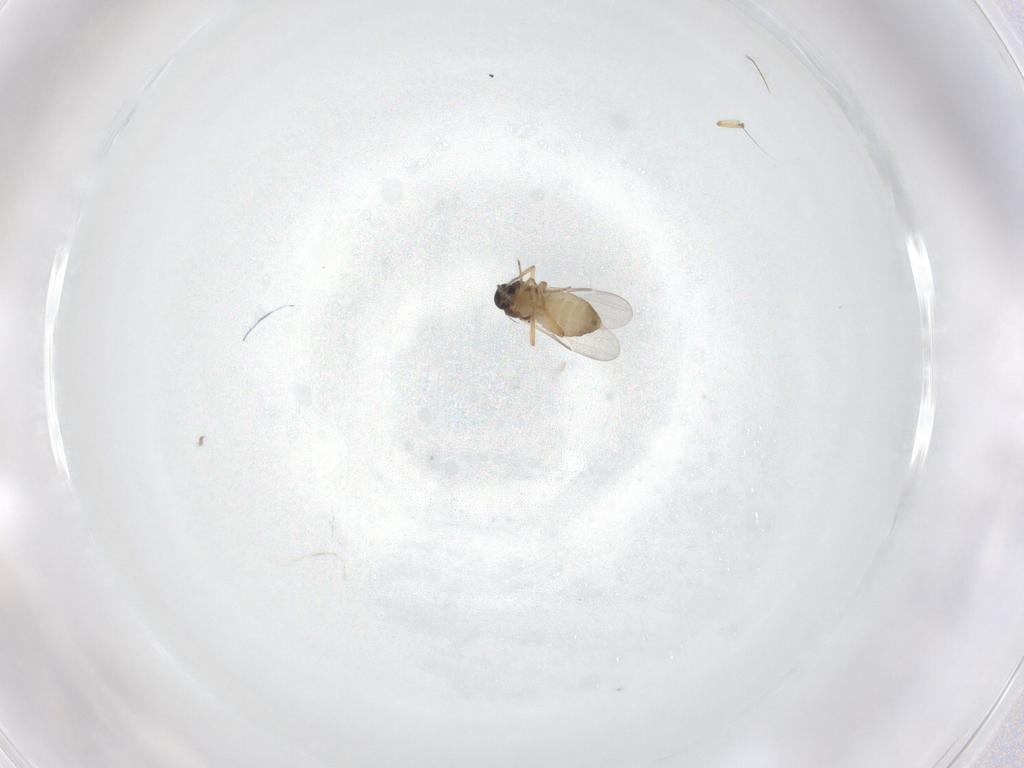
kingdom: Animalia
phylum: Arthropoda
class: Insecta
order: Diptera
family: Ceratopogonidae
